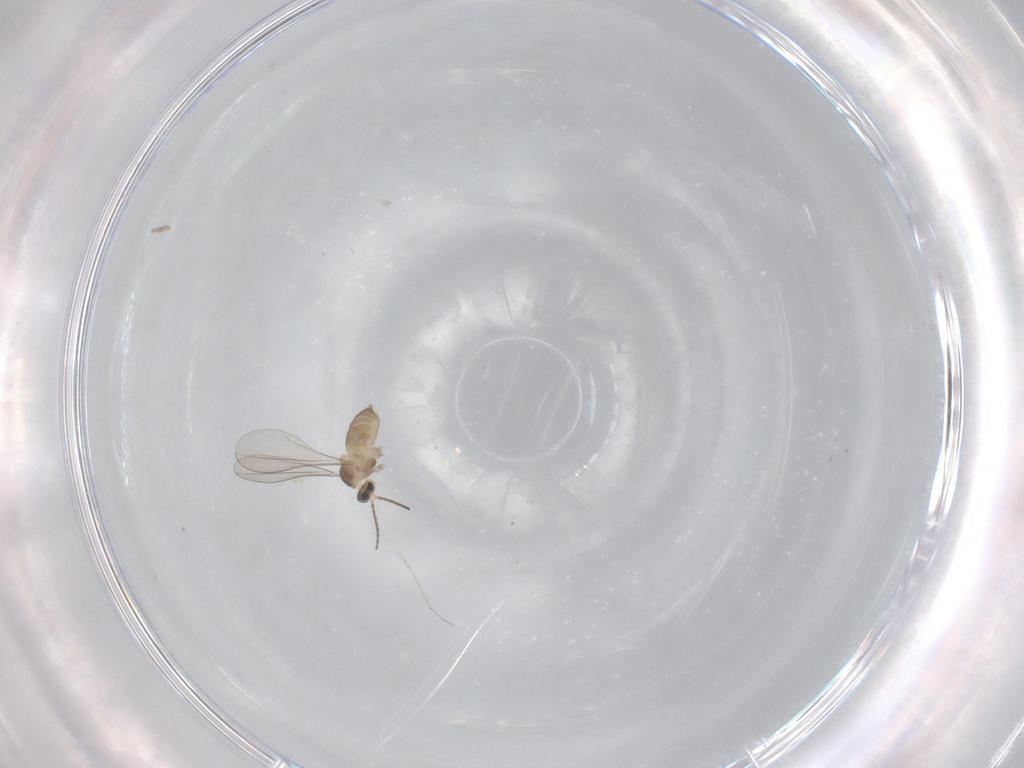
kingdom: Animalia
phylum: Arthropoda
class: Insecta
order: Diptera
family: Cecidomyiidae
